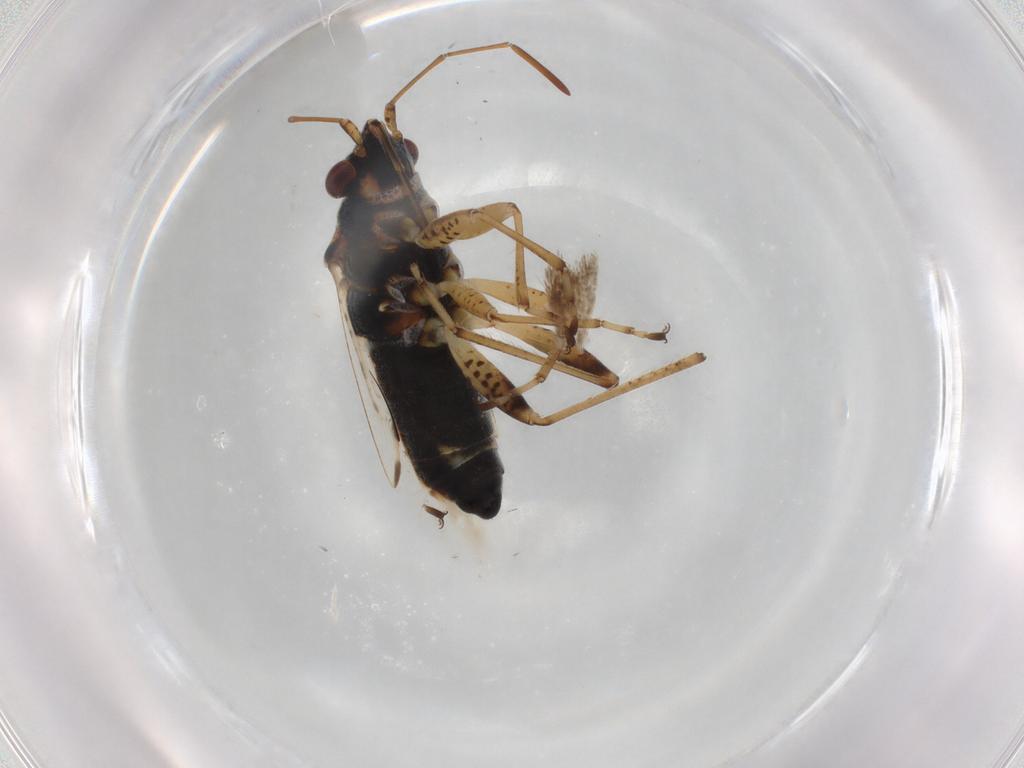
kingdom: Animalia
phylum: Arthropoda
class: Insecta
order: Hemiptera
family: Lygaeidae
